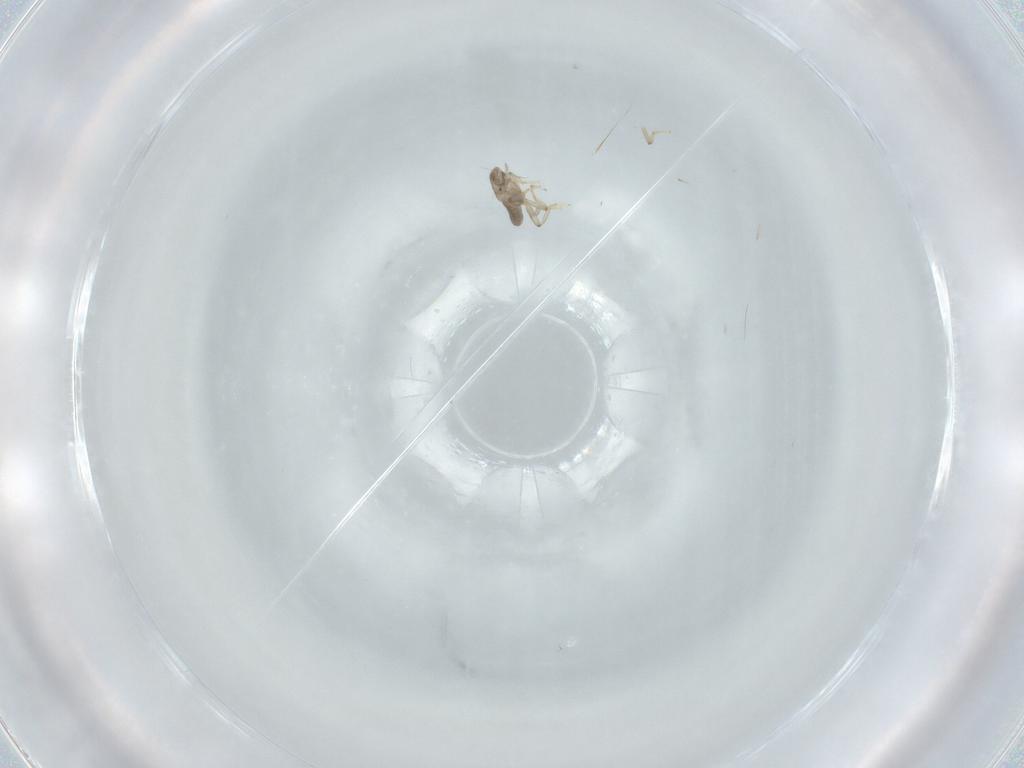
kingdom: Animalia
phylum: Arthropoda
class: Insecta
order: Diptera
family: Phoridae
